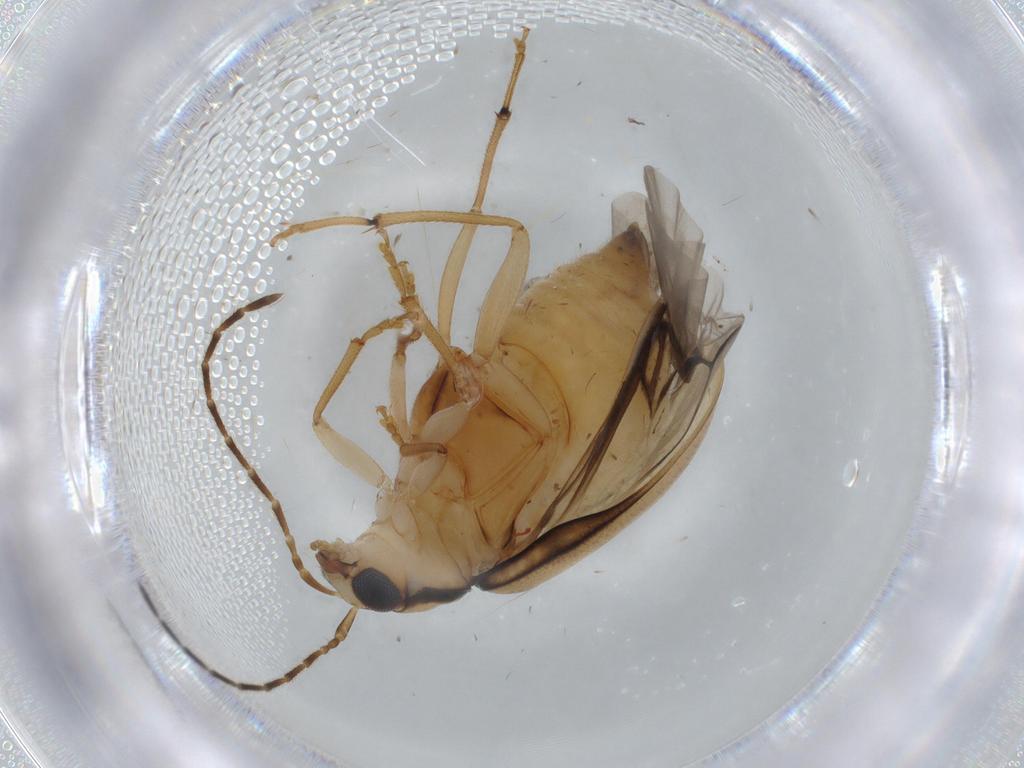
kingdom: Animalia
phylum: Arthropoda
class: Insecta
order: Coleoptera
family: Chrysomelidae
